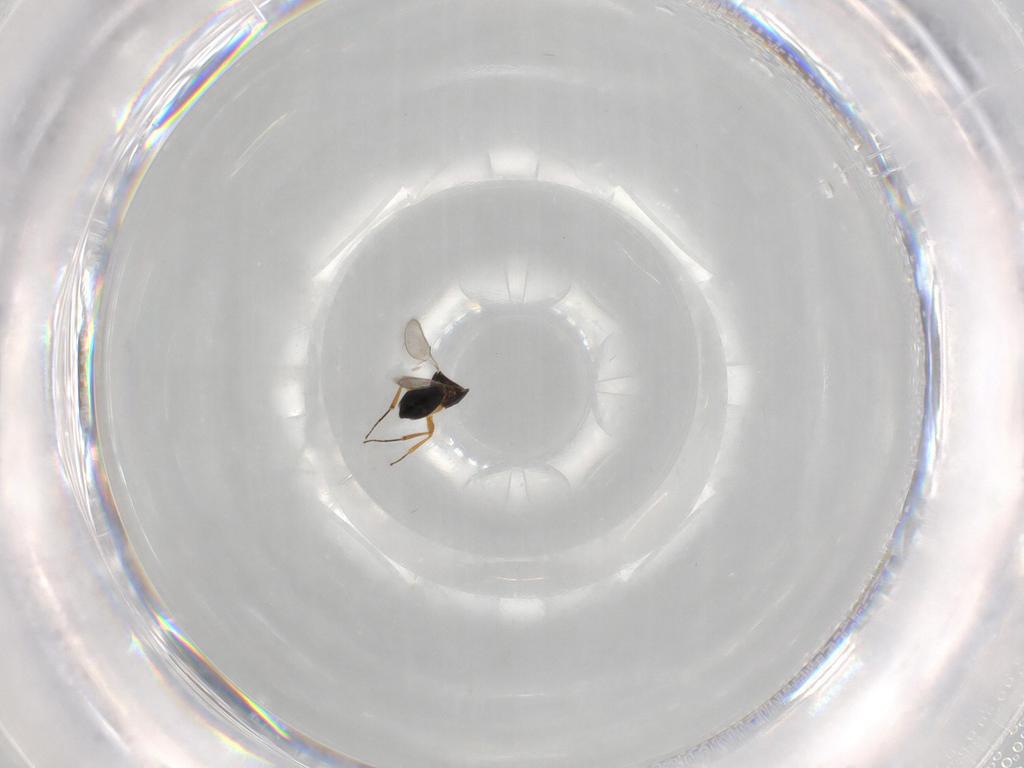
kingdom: Animalia
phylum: Arthropoda
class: Insecta
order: Hymenoptera
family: Scelionidae
